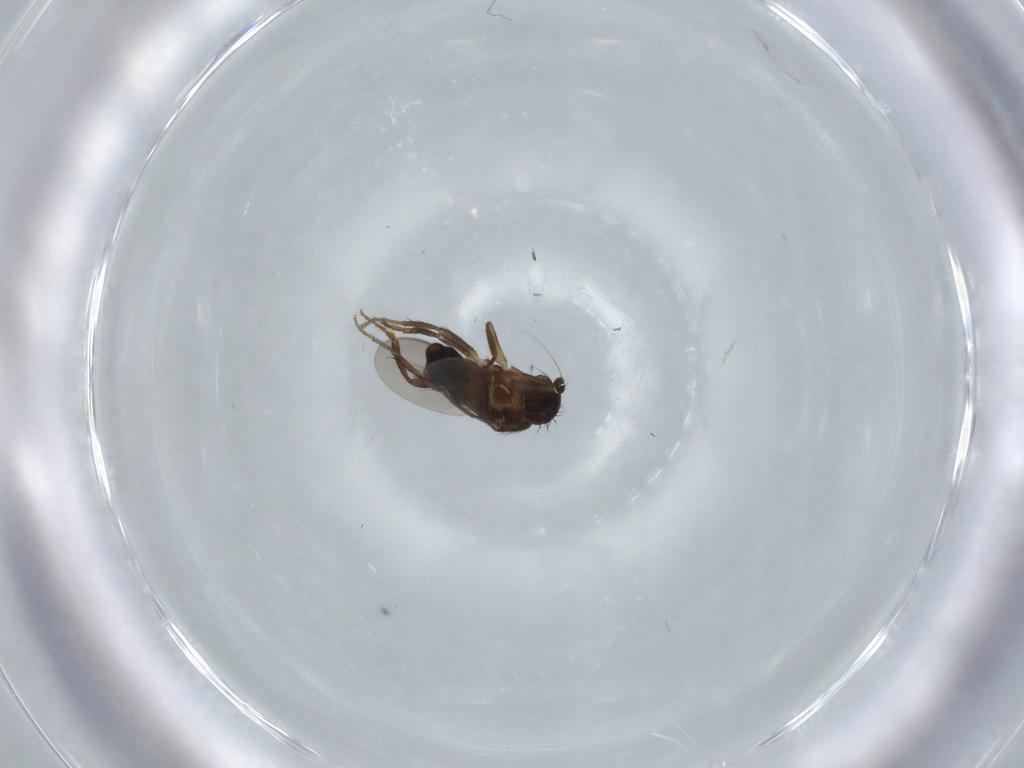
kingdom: Animalia
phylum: Arthropoda
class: Insecta
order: Diptera
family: Sphaeroceridae
